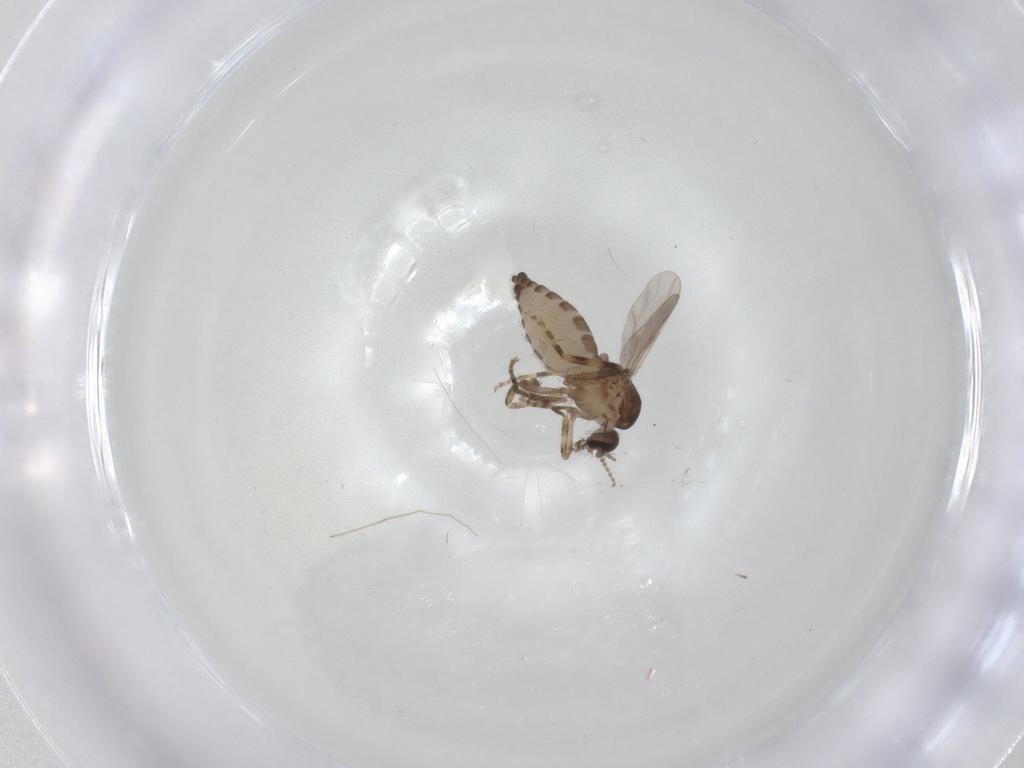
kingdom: Animalia
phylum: Arthropoda
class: Insecta
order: Diptera
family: Ceratopogonidae
